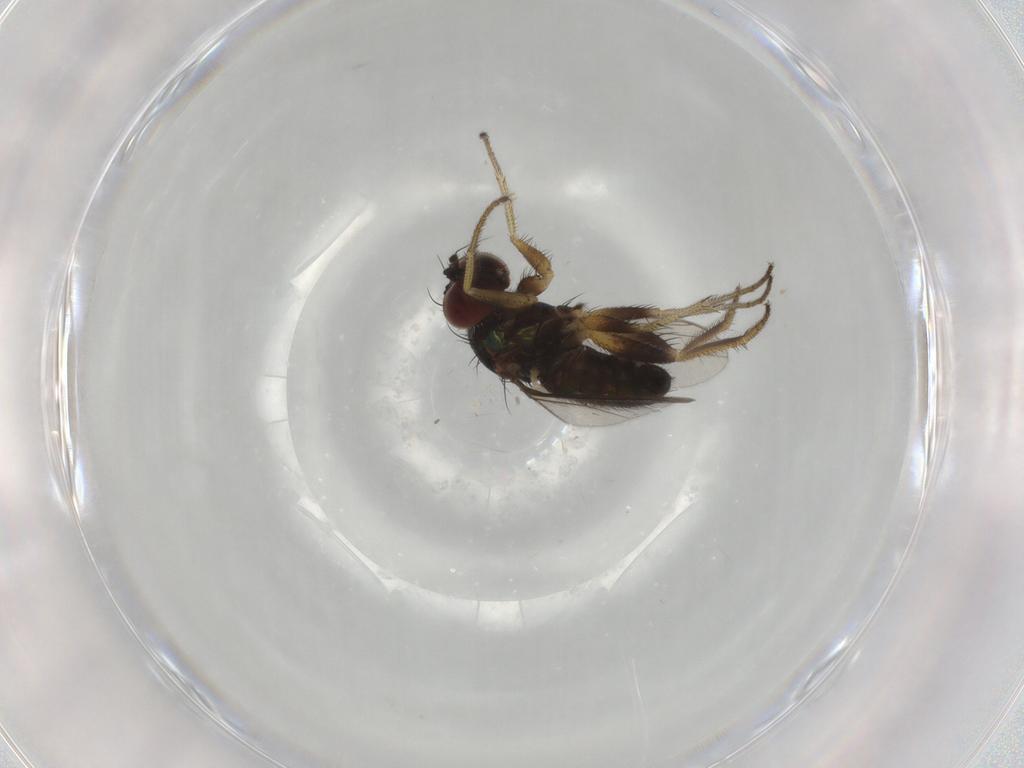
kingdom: Animalia
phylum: Arthropoda
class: Insecta
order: Diptera
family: Dolichopodidae
